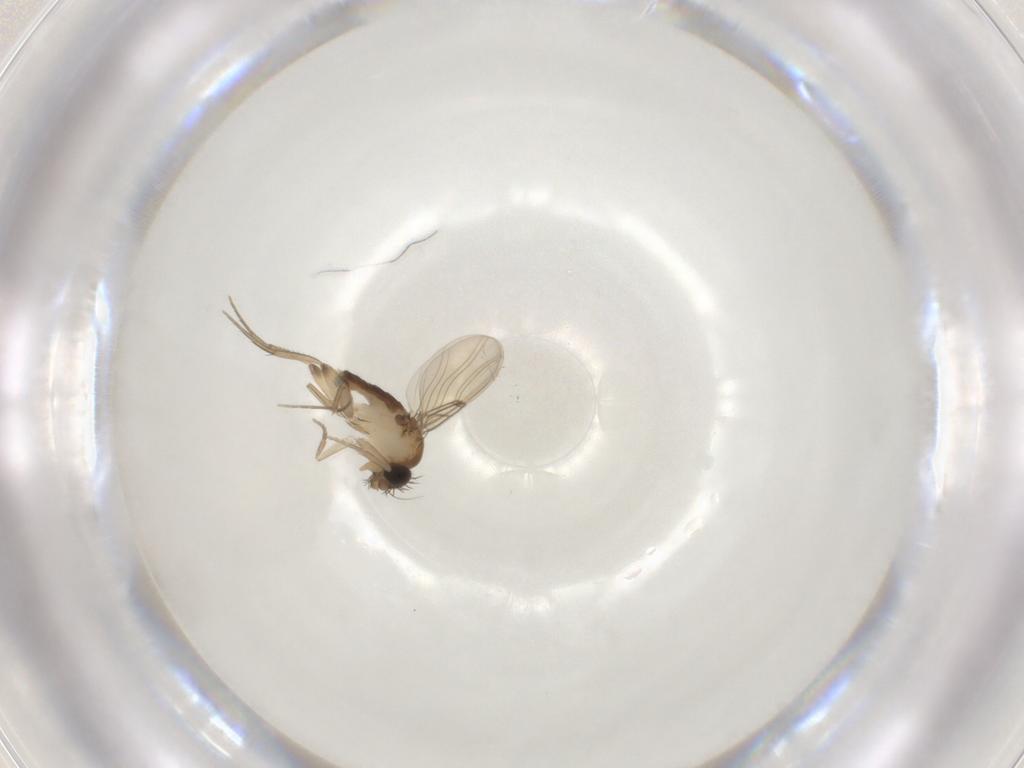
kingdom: Animalia
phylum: Arthropoda
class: Insecta
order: Diptera
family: Phoridae
